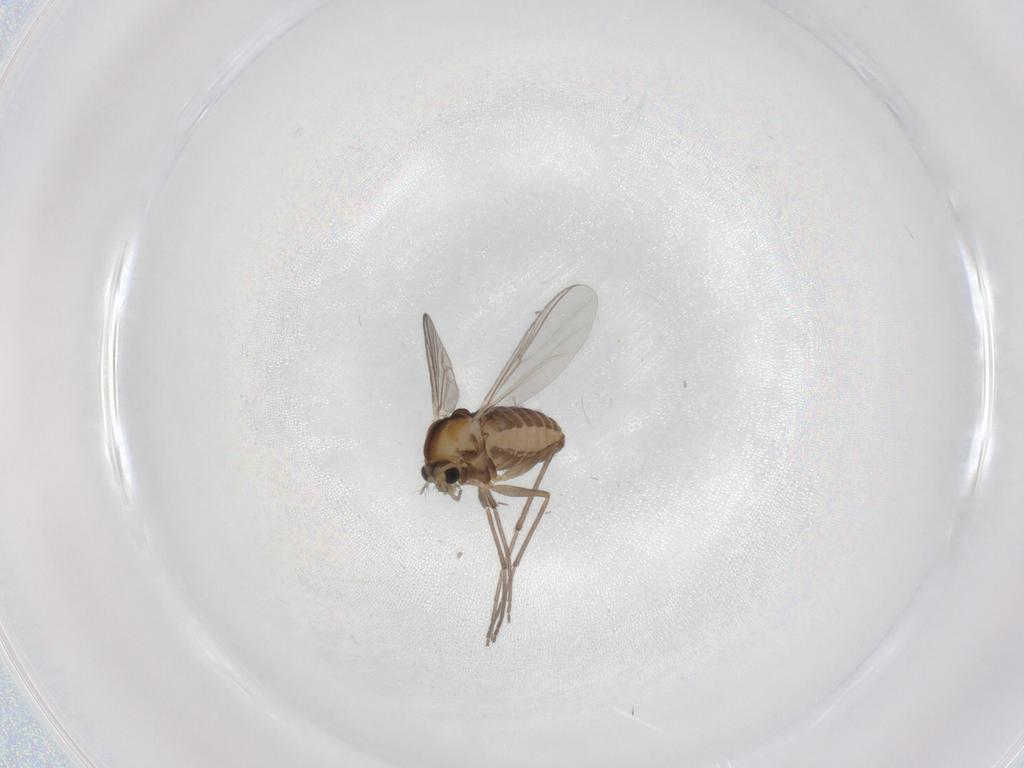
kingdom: Animalia
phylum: Arthropoda
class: Insecta
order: Diptera
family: Chironomidae
